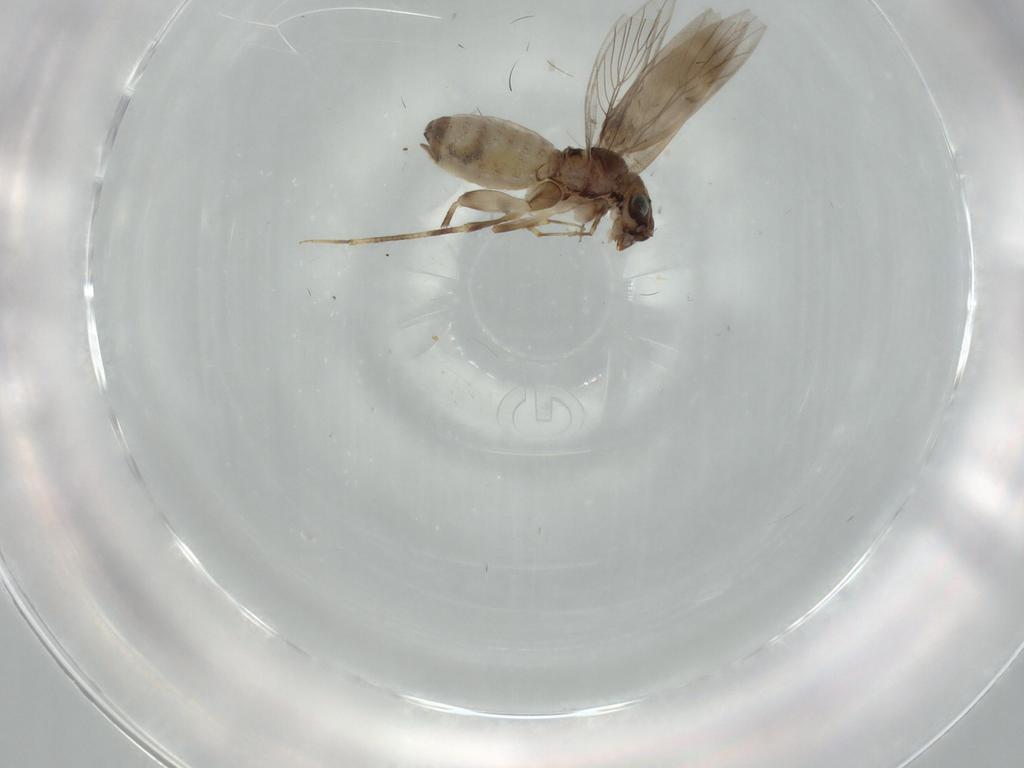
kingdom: Animalia
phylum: Arthropoda
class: Insecta
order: Psocodea
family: Lepidopsocidae
